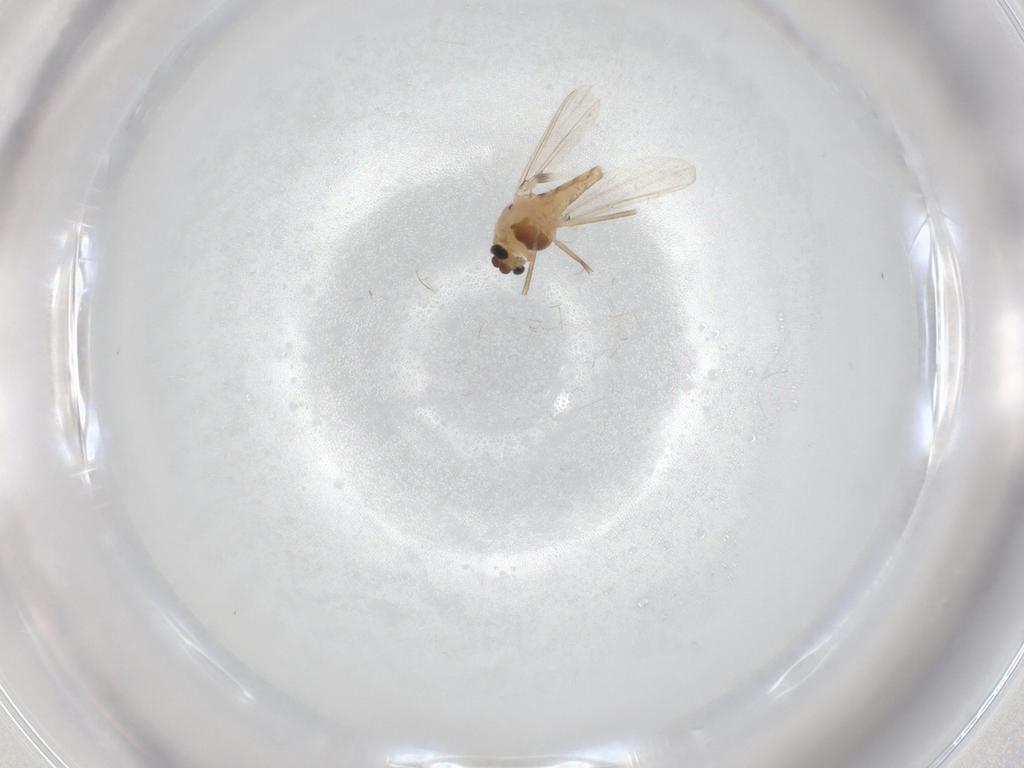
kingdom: Animalia
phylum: Arthropoda
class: Insecta
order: Diptera
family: Chironomidae
